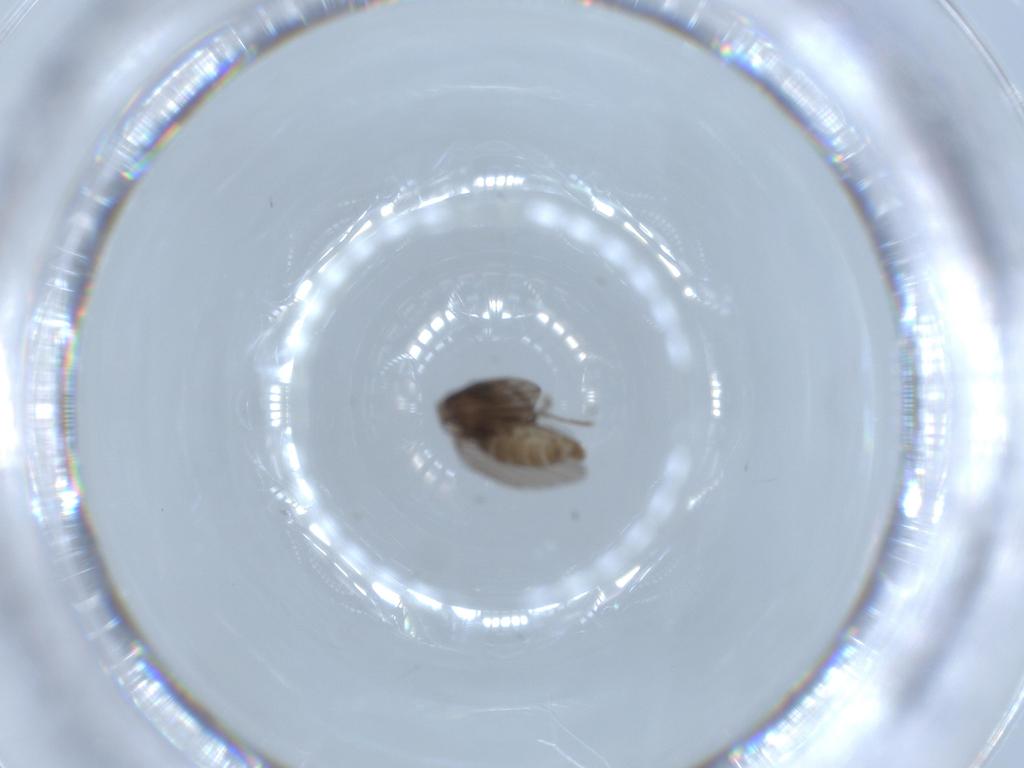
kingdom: Animalia
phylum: Arthropoda
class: Insecta
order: Diptera
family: Psychodidae
